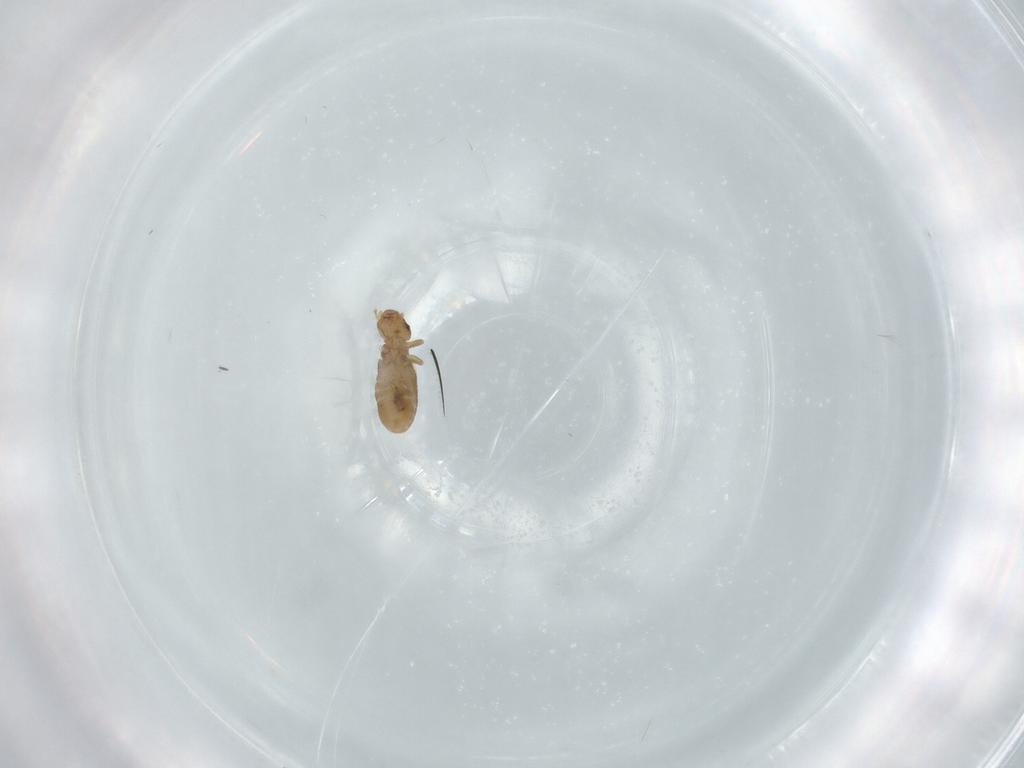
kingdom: Animalia
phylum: Arthropoda
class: Insecta
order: Psocodea
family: Liposcelididae
